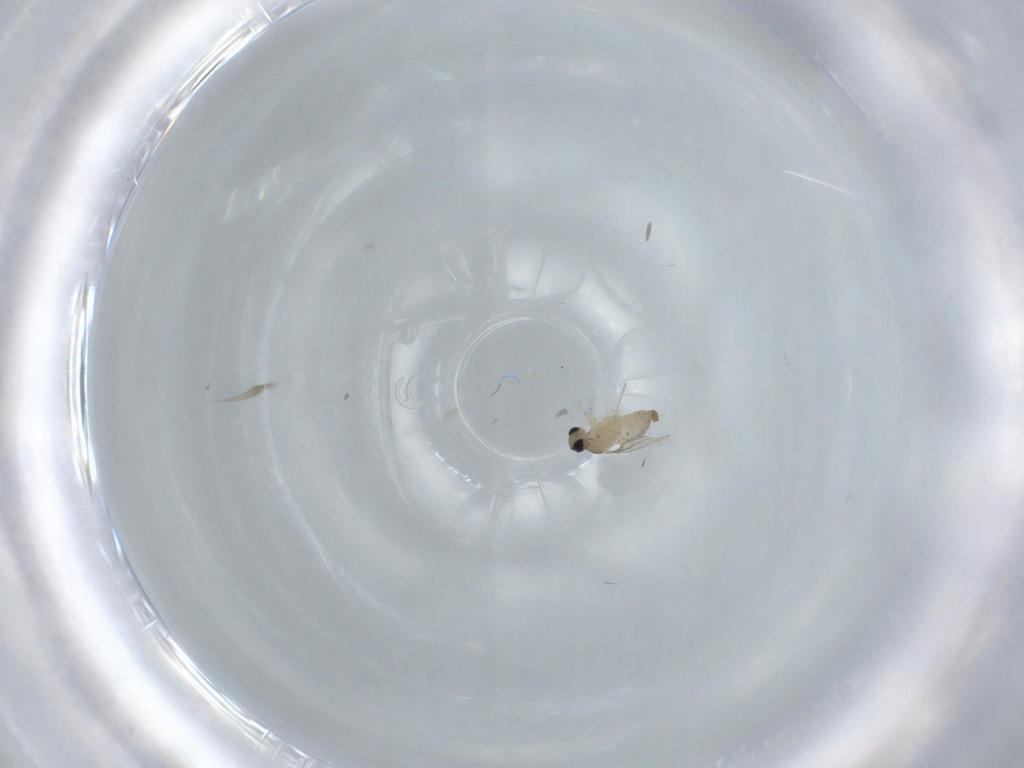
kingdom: Animalia
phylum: Arthropoda
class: Insecta
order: Diptera
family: Cecidomyiidae
